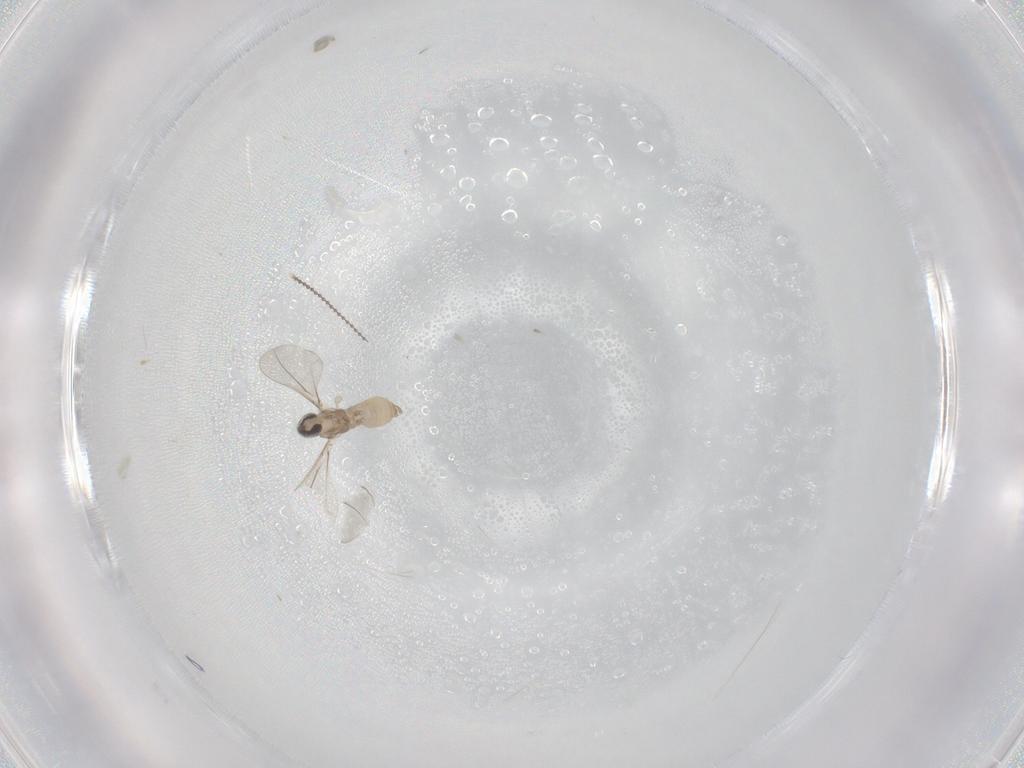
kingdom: Animalia
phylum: Arthropoda
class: Insecta
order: Diptera
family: Cecidomyiidae
